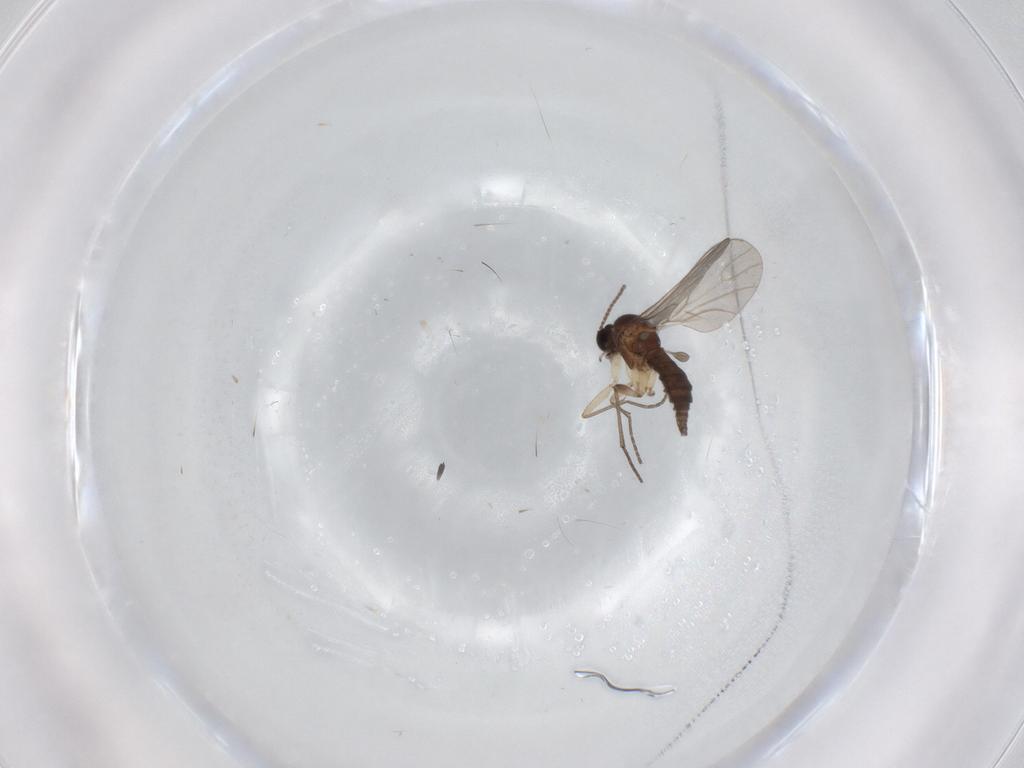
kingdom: Animalia
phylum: Arthropoda
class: Insecta
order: Diptera
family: Sciaridae
